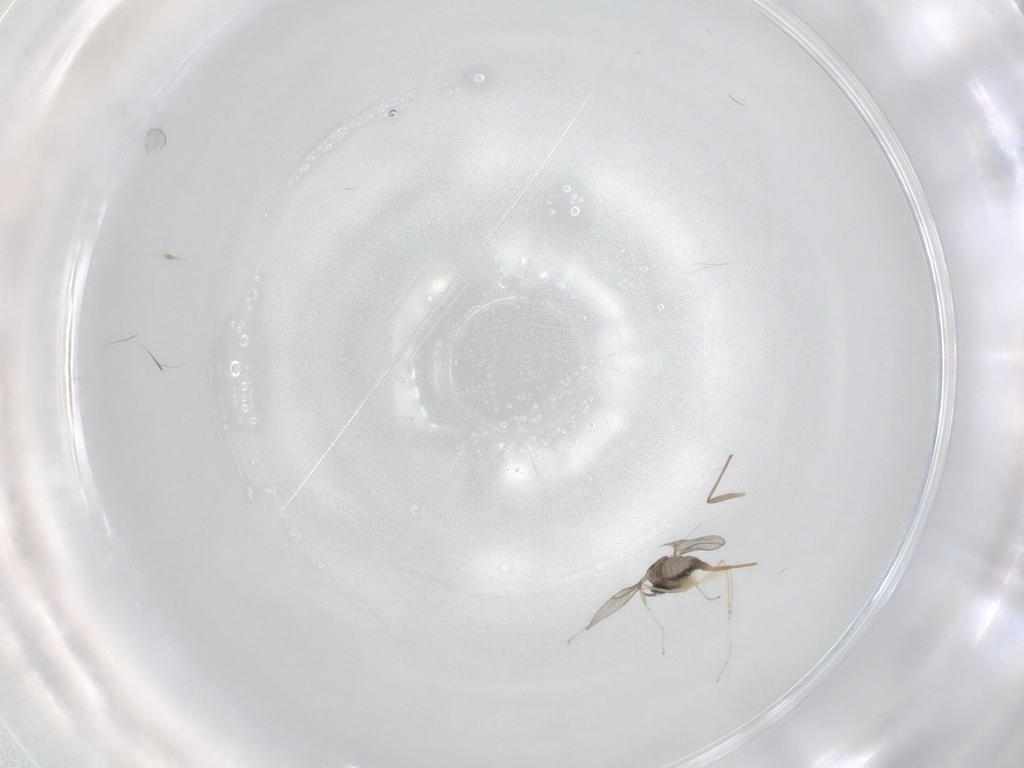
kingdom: Animalia
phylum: Arthropoda
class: Insecta
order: Diptera
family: Cecidomyiidae
